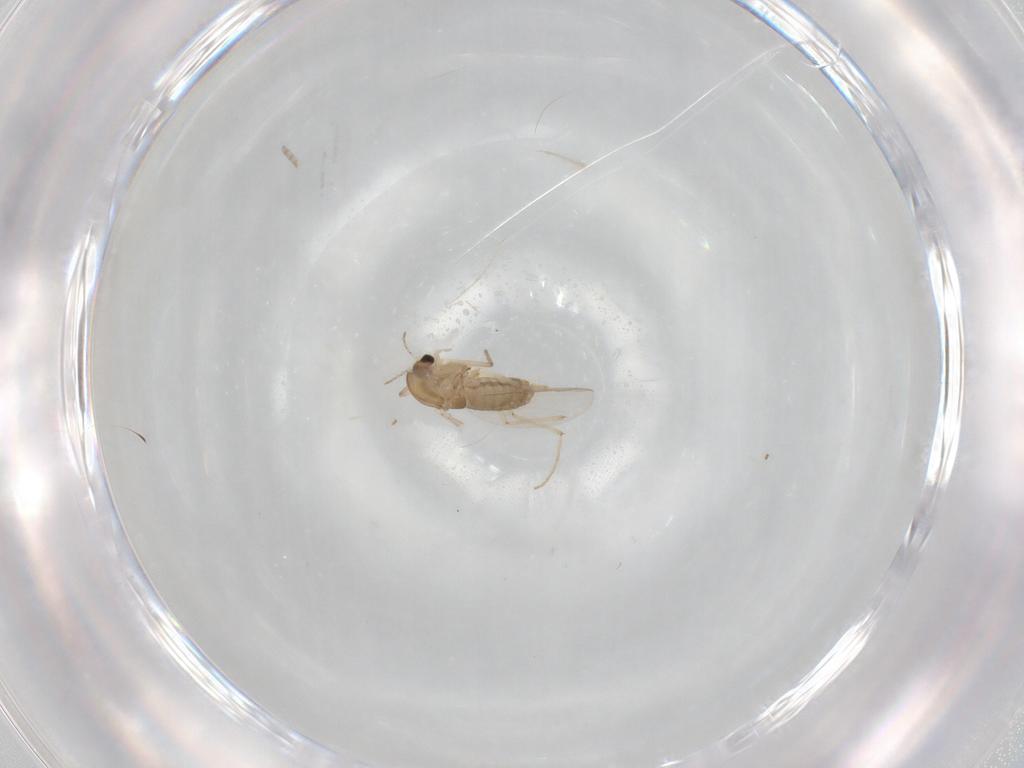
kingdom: Animalia
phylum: Arthropoda
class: Insecta
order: Diptera
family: Chironomidae
